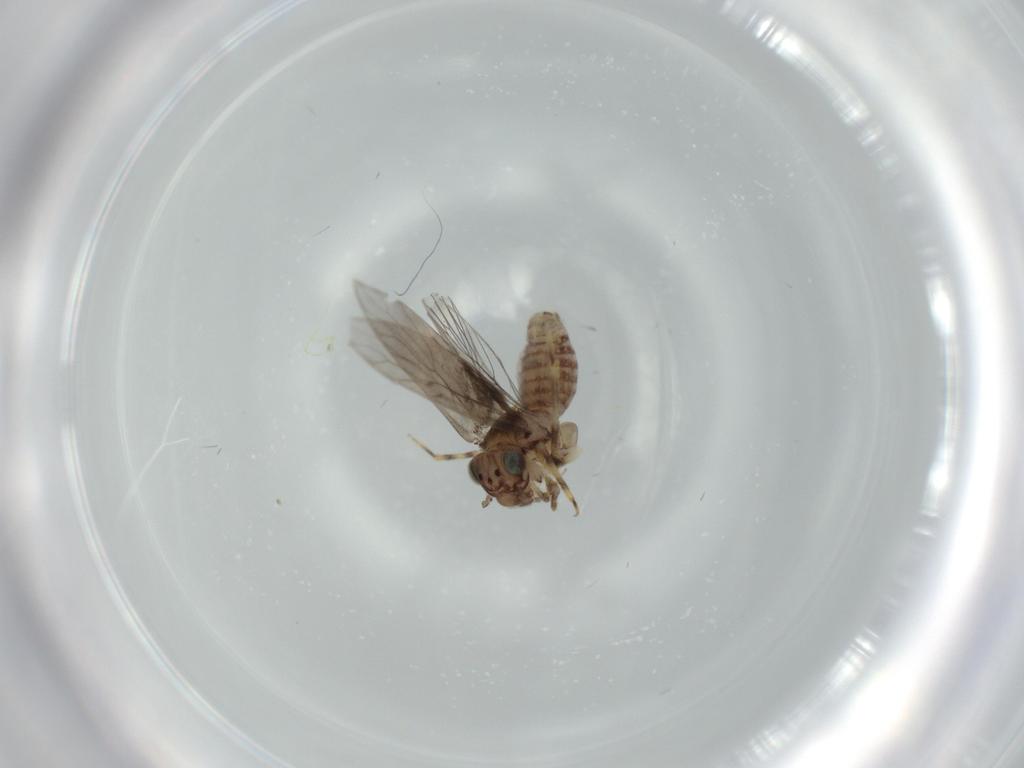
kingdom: Animalia
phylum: Arthropoda
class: Insecta
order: Psocodea
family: Lepidopsocidae
